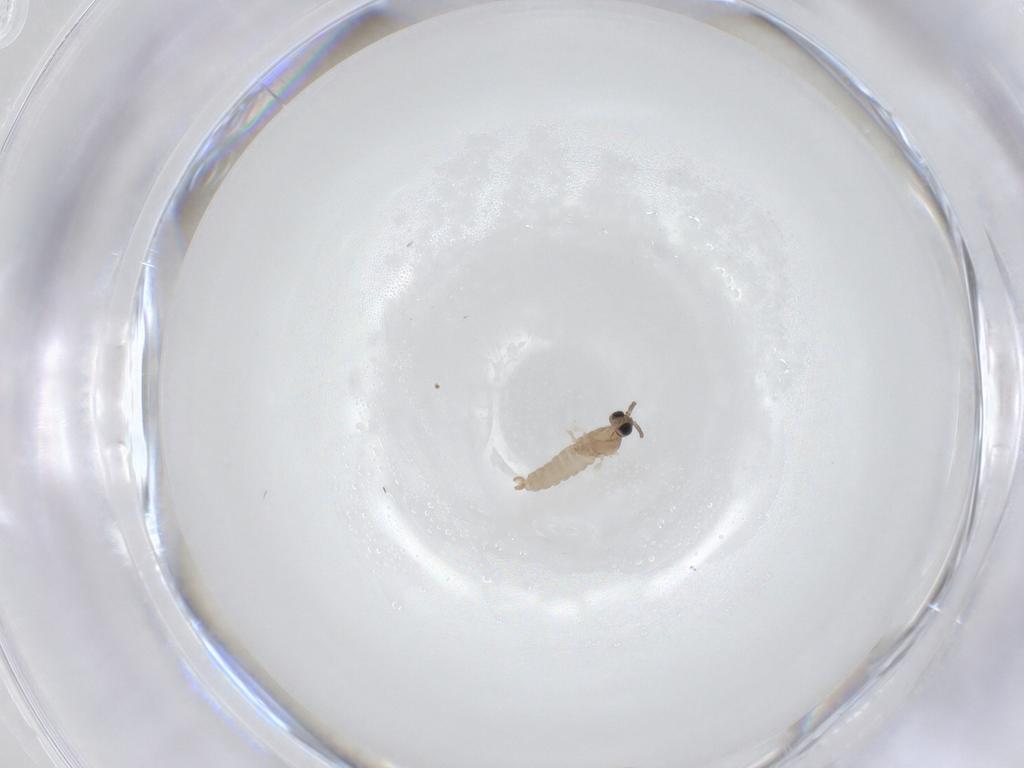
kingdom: Animalia
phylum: Arthropoda
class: Insecta
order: Diptera
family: Cecidomyiidae
